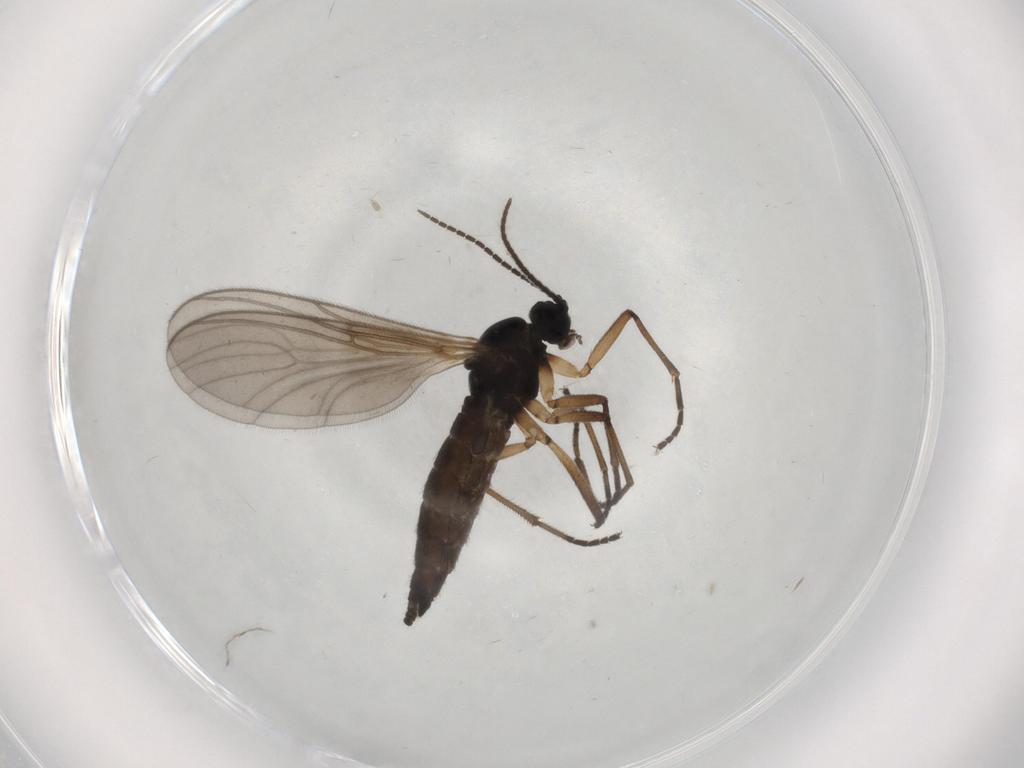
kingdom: Animalia
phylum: Arthropoda
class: Insecta
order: Diptera
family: Sciaridae
